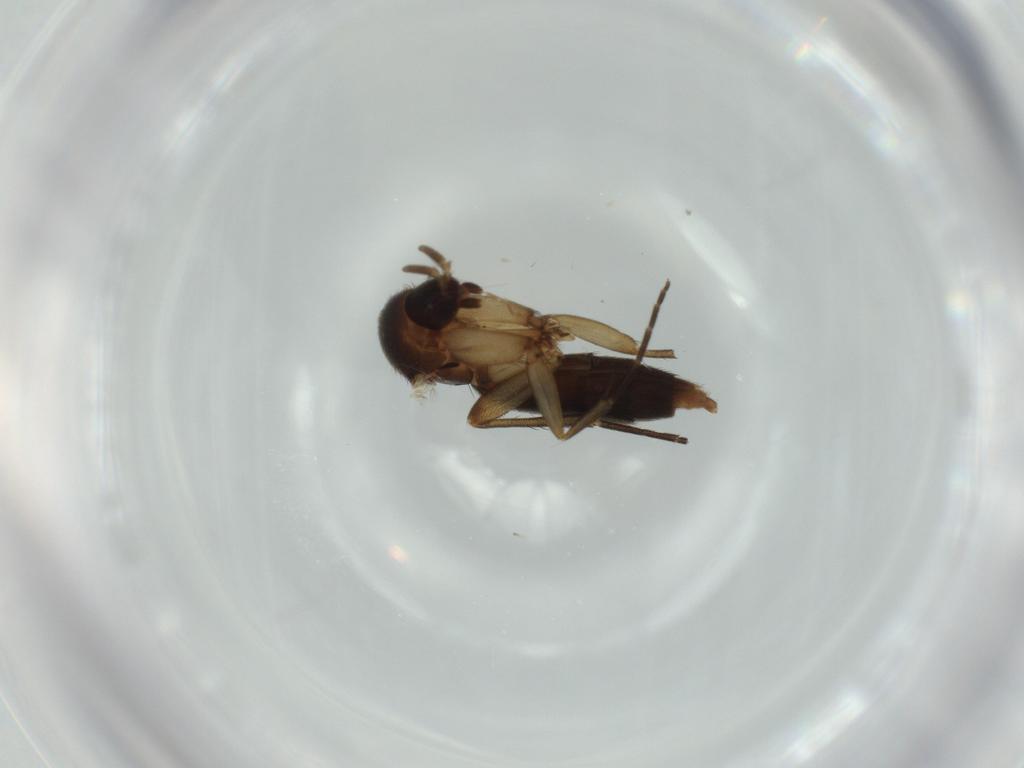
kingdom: Animalia
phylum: Arthropoda
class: Insecta
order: Diptera
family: Mycetophilidae
